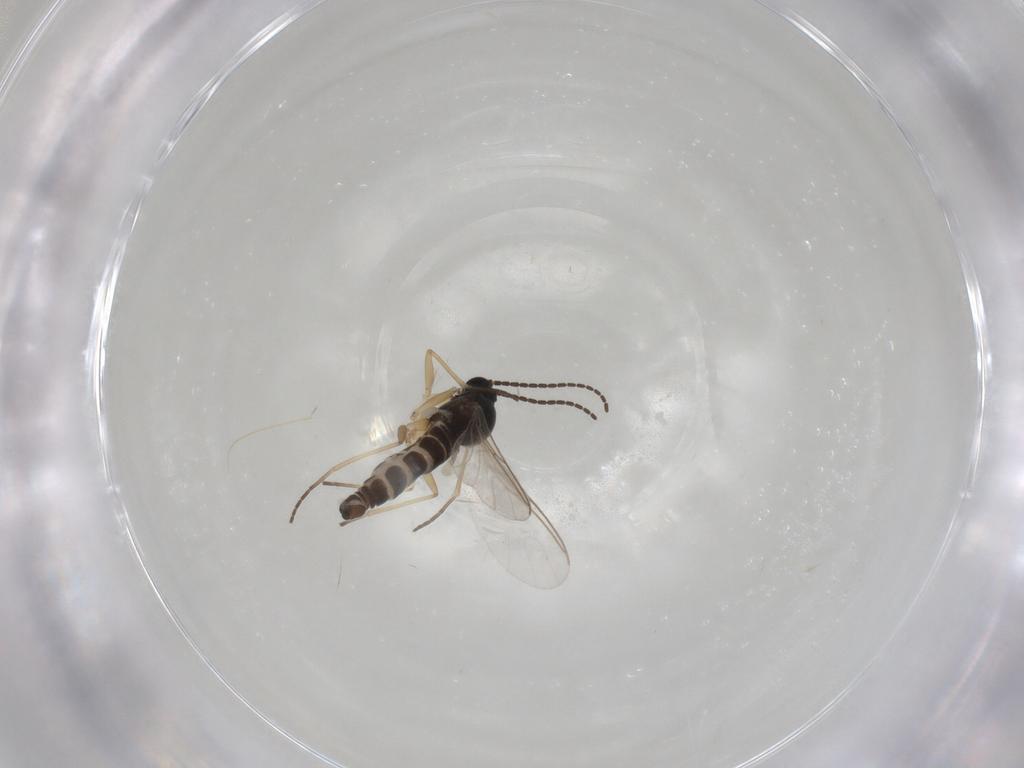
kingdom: Animalia
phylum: Arthropoda
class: Insecta
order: Diptera
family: Sciaridae
